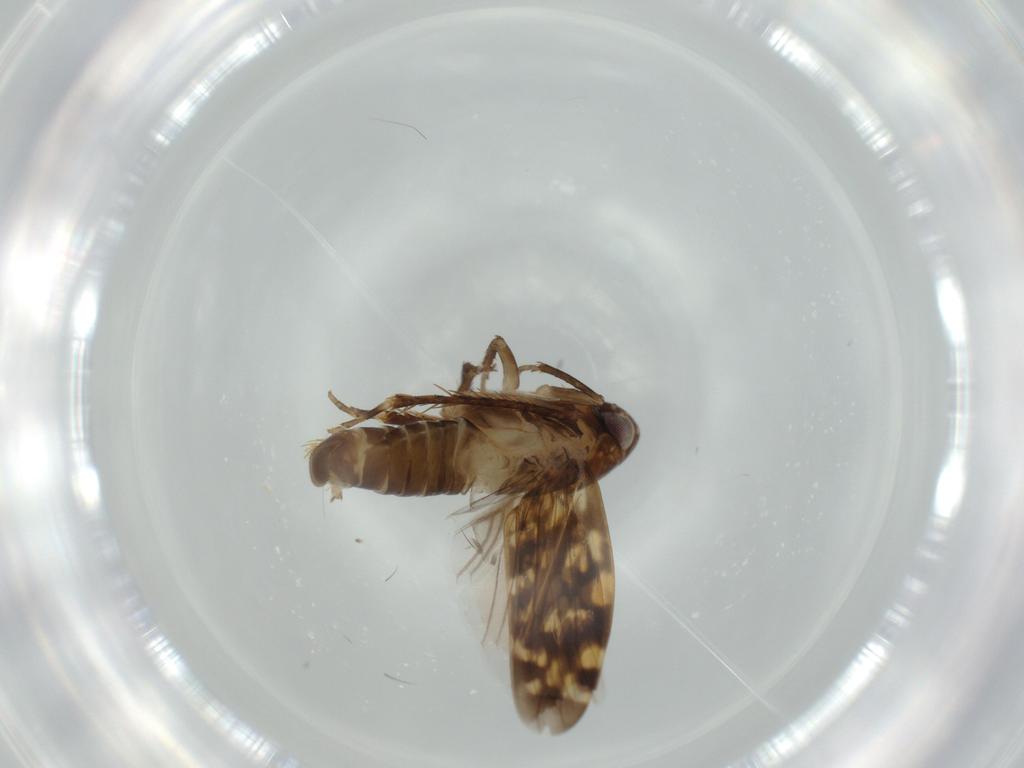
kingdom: Animalia
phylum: Arthropoda
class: Insecta
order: Hemiptera
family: Cicadellidae
